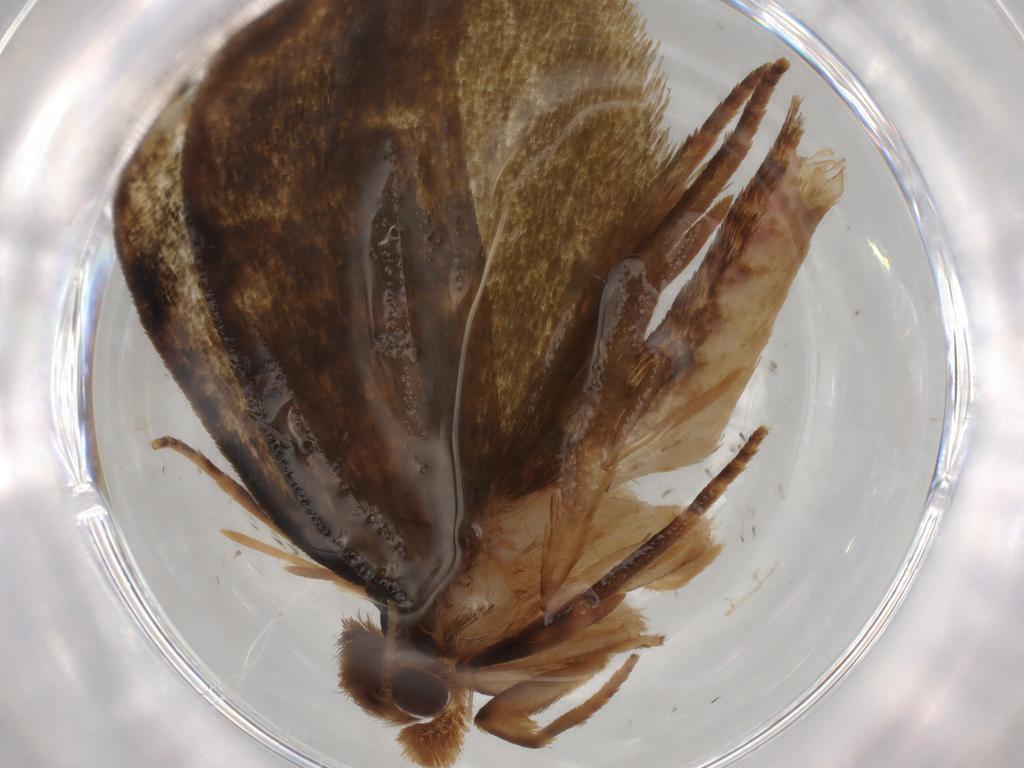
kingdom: Animalia
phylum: Arthropoda
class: Insecta
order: Lepidoptera
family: Geometridae
